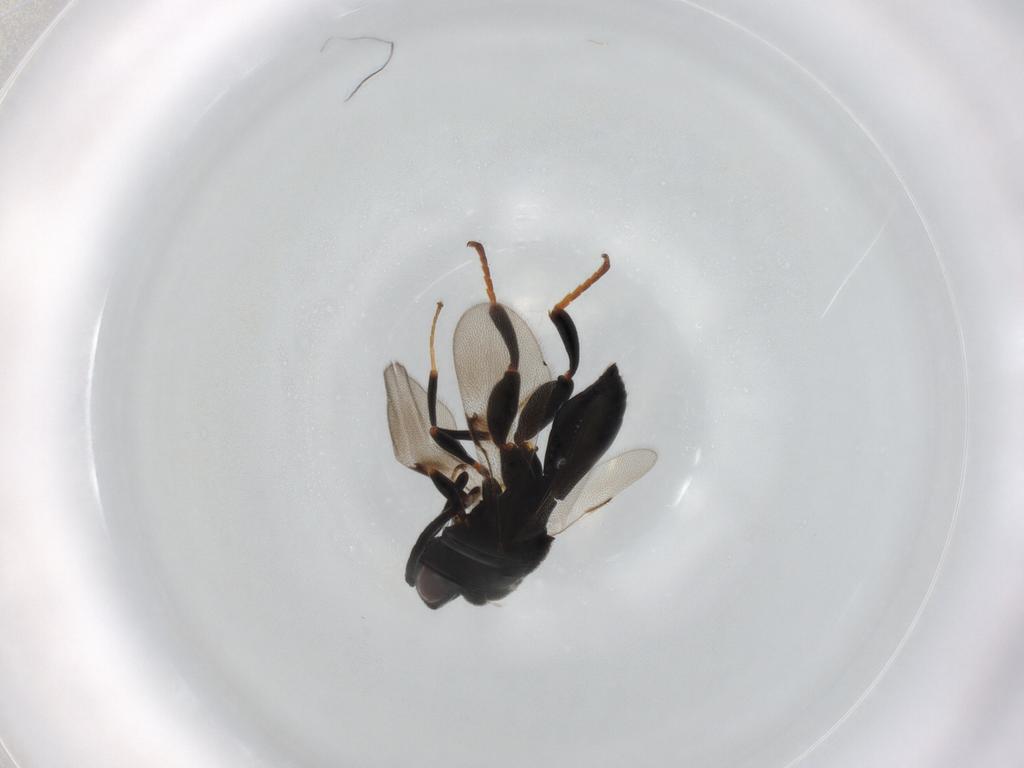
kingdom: Animalia
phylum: Arthropoda
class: Insecta
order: Hymenoptera
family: Chalcididae
